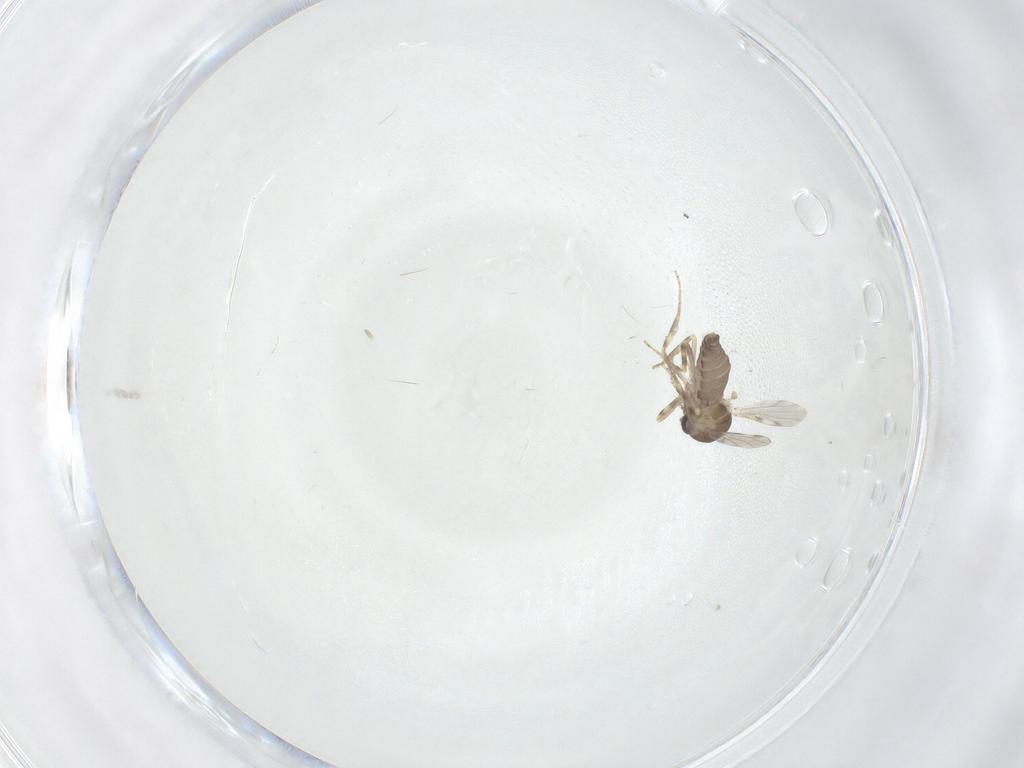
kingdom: Animalia
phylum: Arthropoda
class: Insecta
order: Diptera
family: Ceratopogonidae
